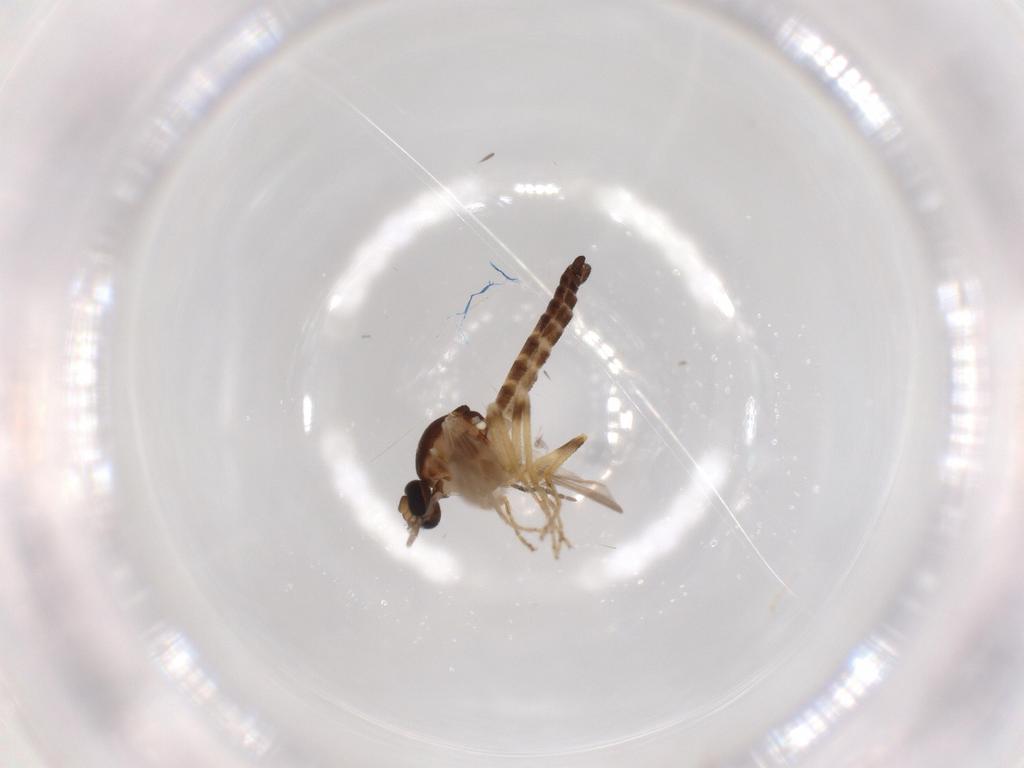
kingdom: Animalia
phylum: Arthropoda
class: Insecta
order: Diptera
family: Ceratopogonidae
